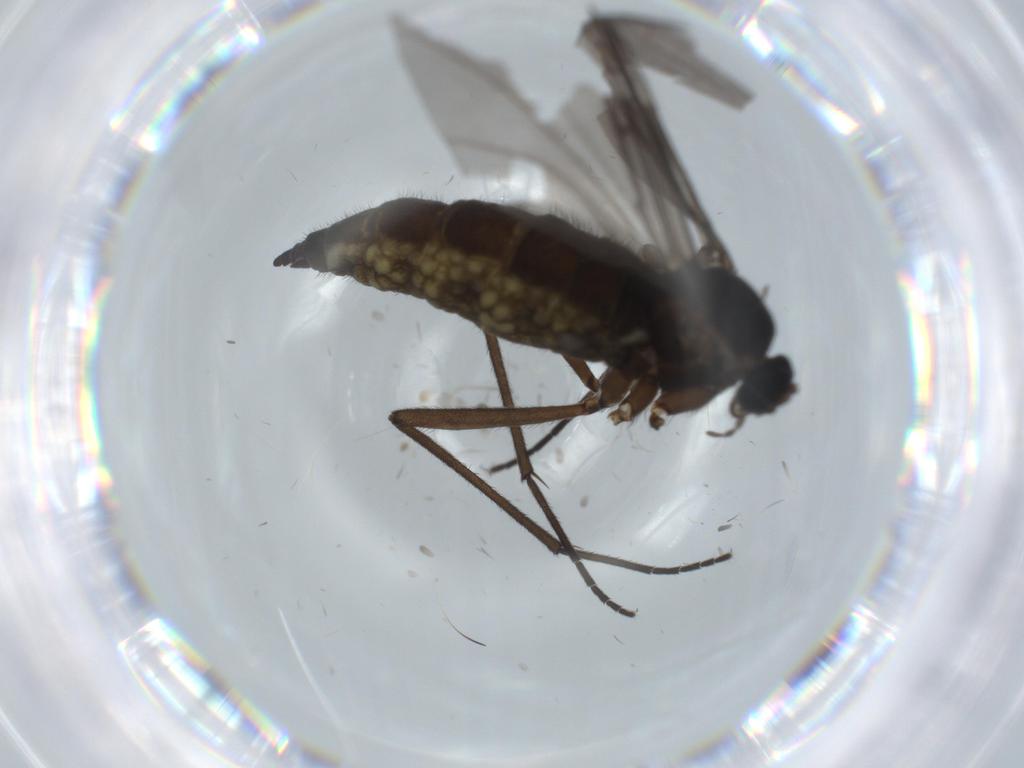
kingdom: Animalia
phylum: Arthropoda
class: Insecta
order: Diptera
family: Sciaridae
